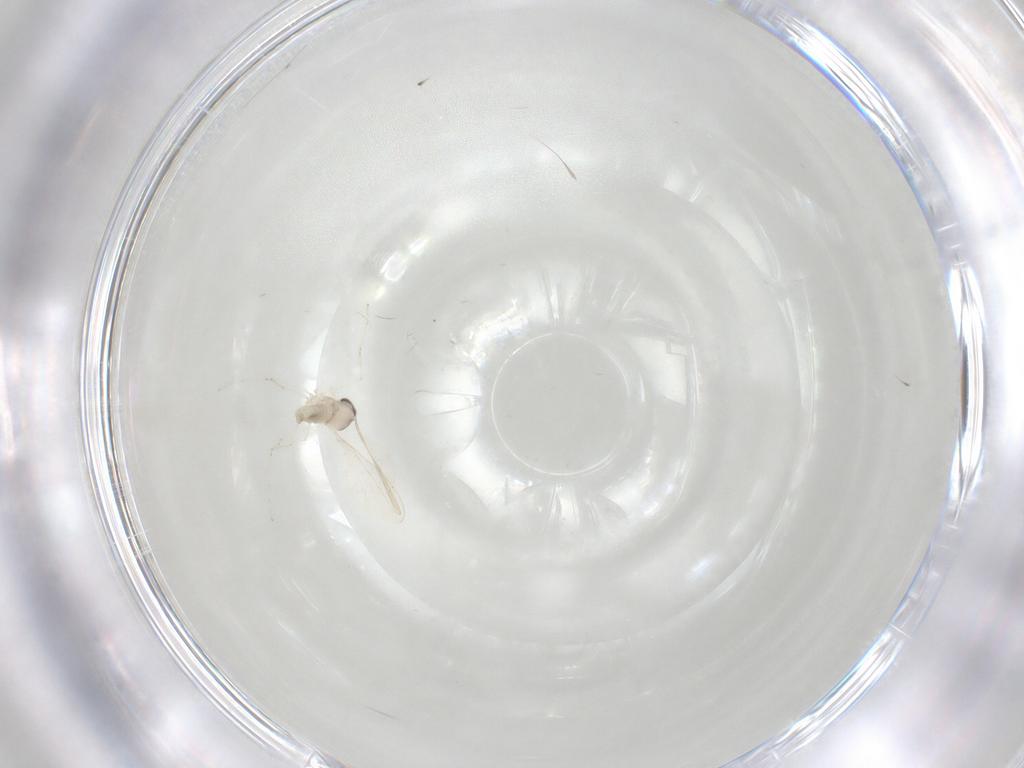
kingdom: Animalia
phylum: Arthropoda
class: Insecta
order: Diptera
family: Cecidomyiidae
